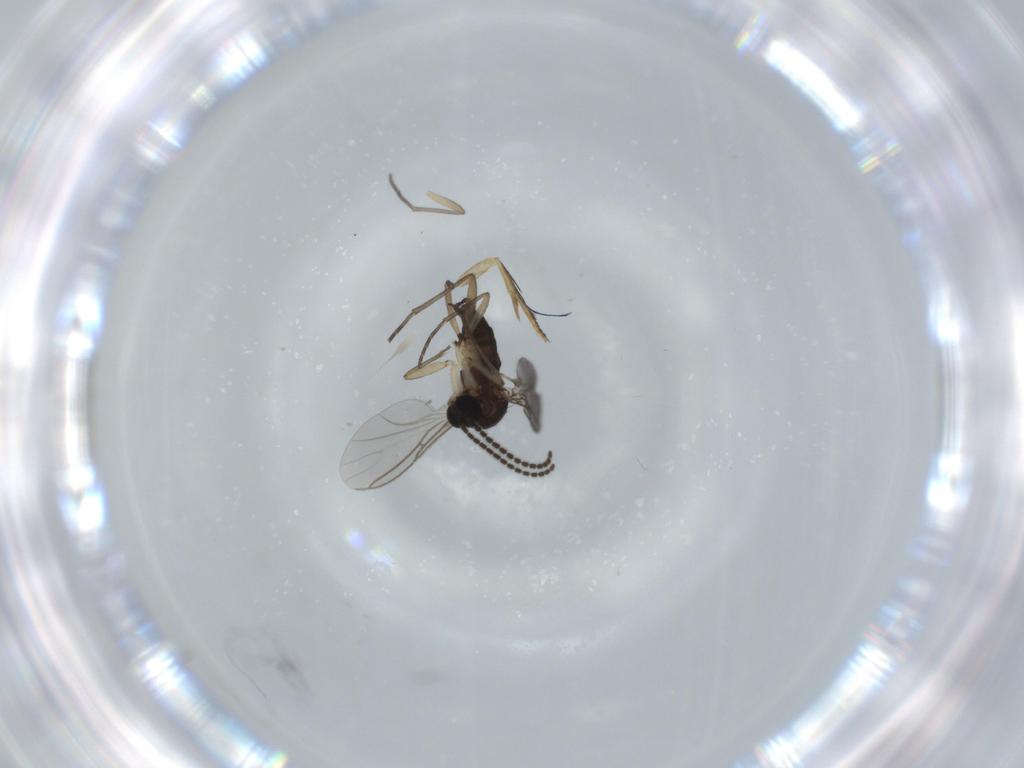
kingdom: Animalia
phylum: Arthropoda
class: Insecta
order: Diptera
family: Sciaridae
